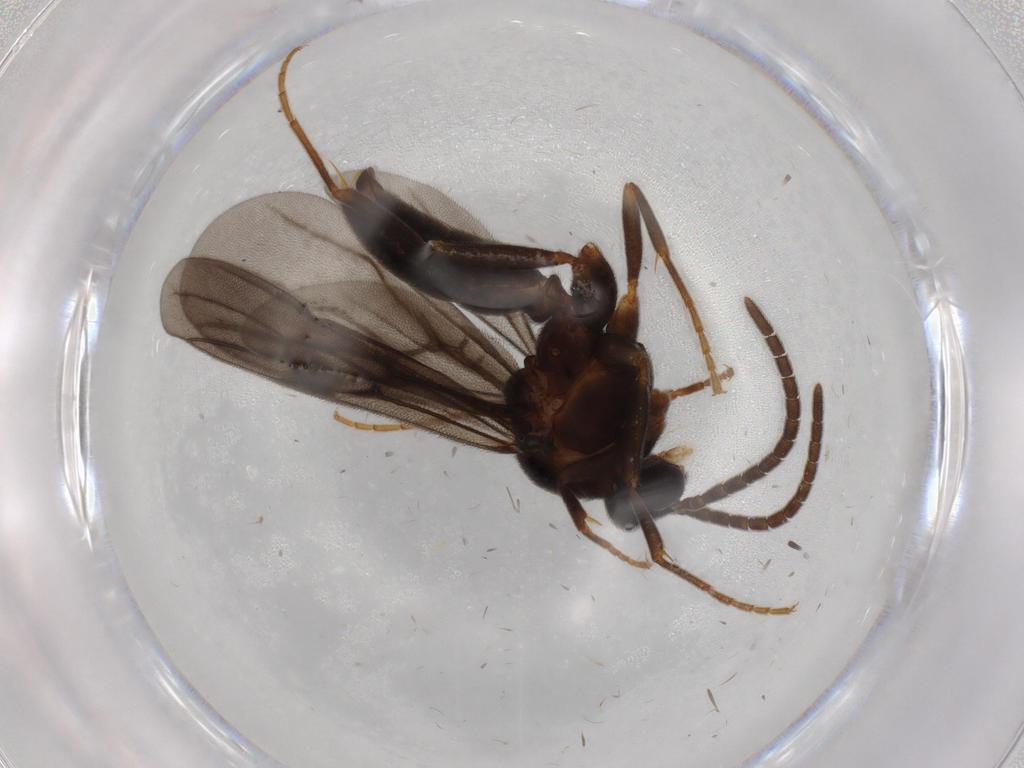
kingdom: Animalia
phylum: Arthropoda
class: Insecta
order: Hymenoptera
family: Formicidae
